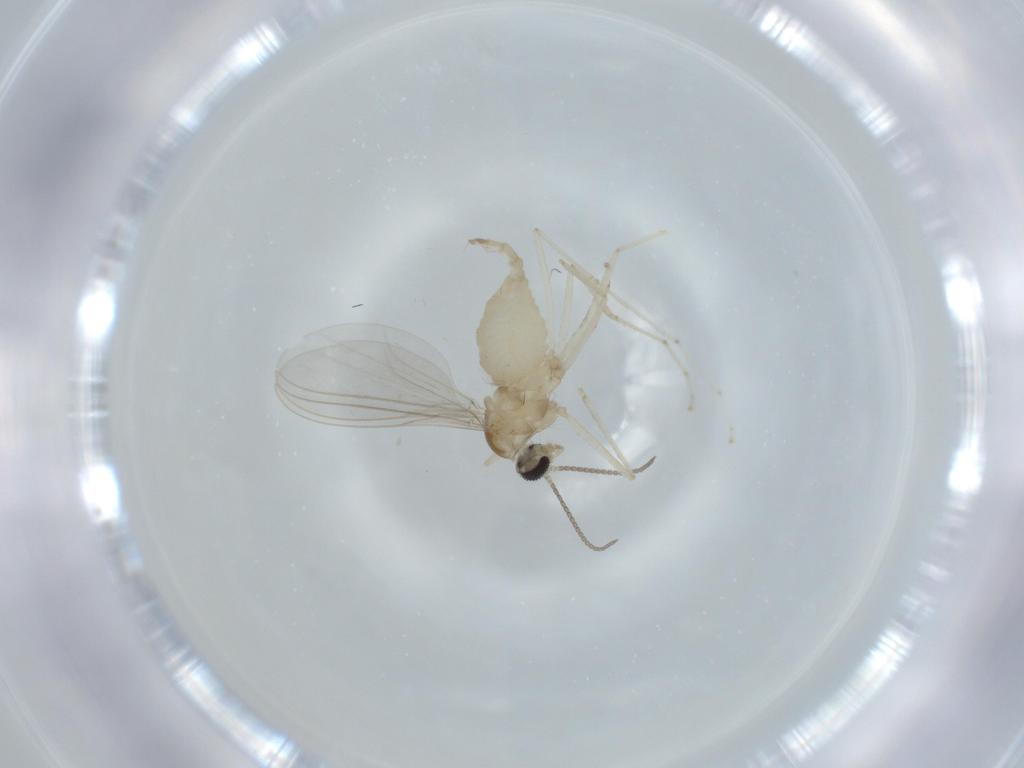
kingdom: Animalia
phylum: Arthropoda
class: Insecta
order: Diptera
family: Cecidomyiidae
